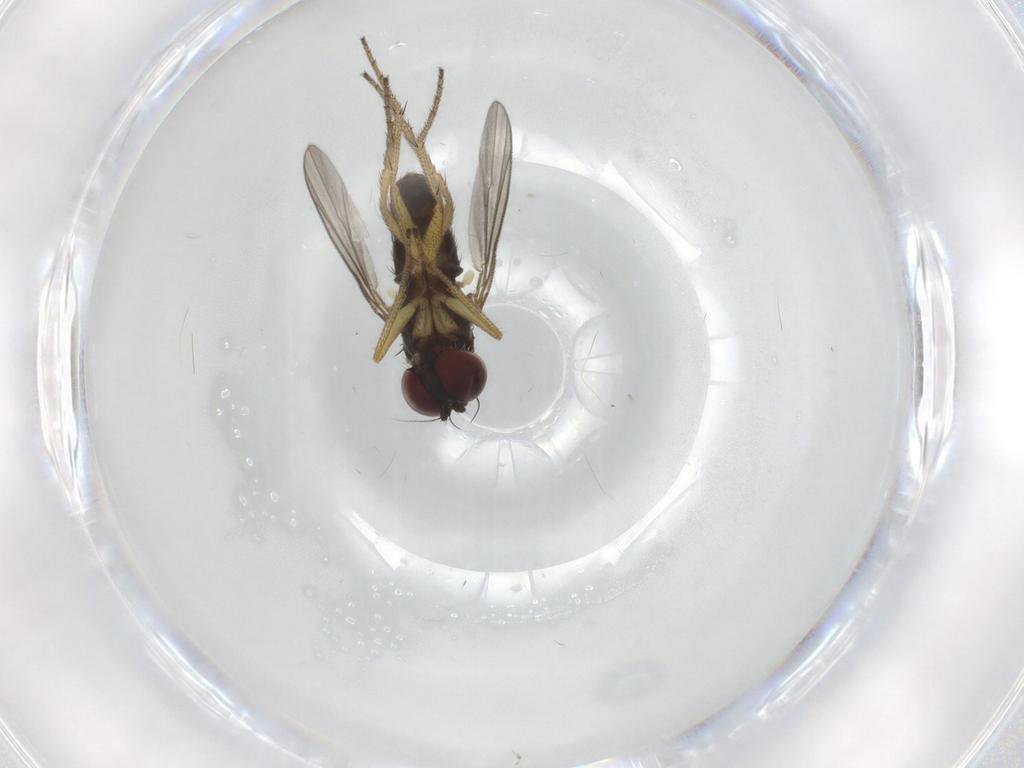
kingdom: Animalia
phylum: Arthropoda
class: Insecta
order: Diptera
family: Dolichopodidae
